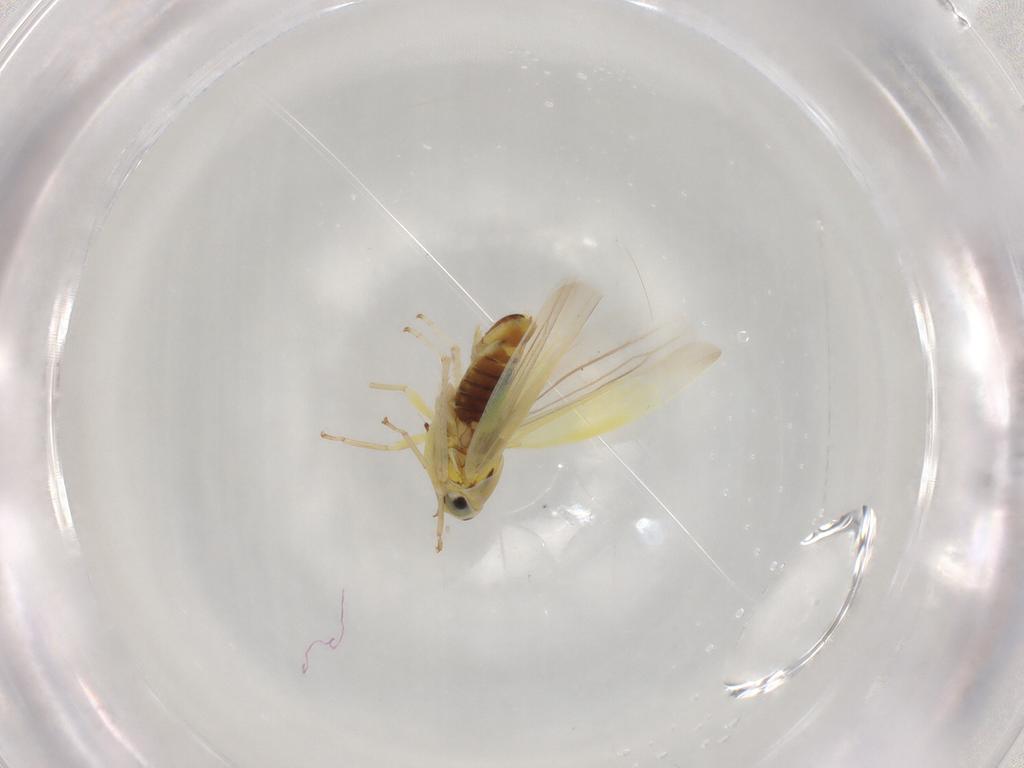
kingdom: Animalia
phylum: Arthropoda
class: Insecta
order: Hemiptera
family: Cicadellidae
